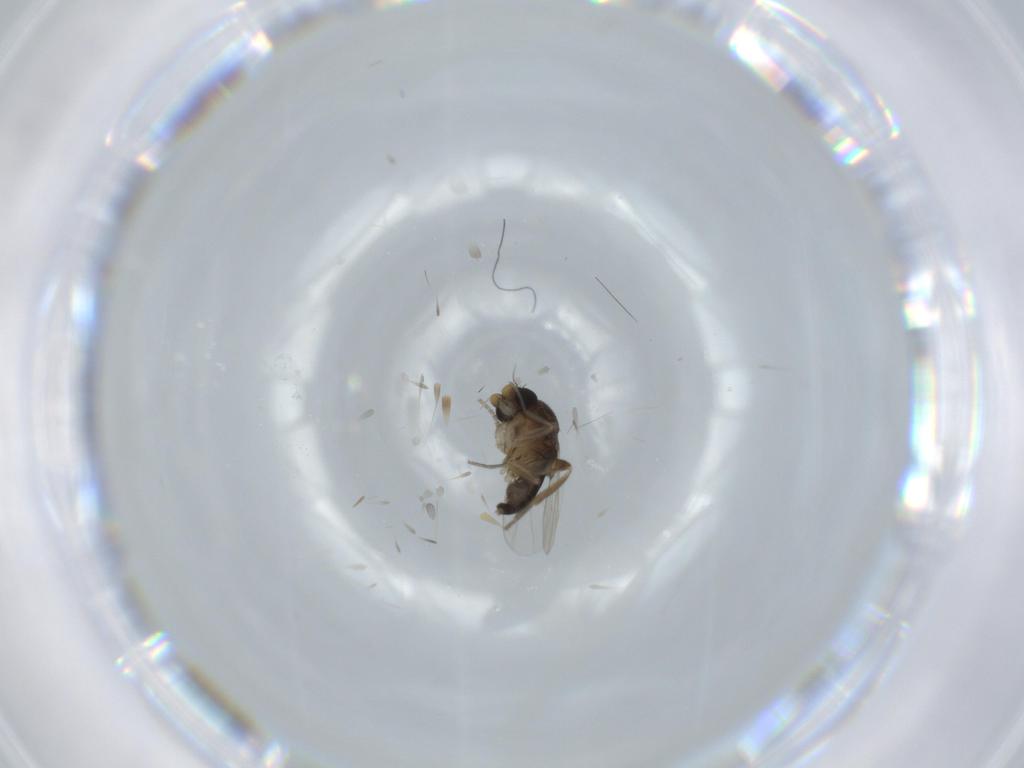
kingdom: Animalia
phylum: Arthropoda
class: Insecta
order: Diptera
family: Phoridae
